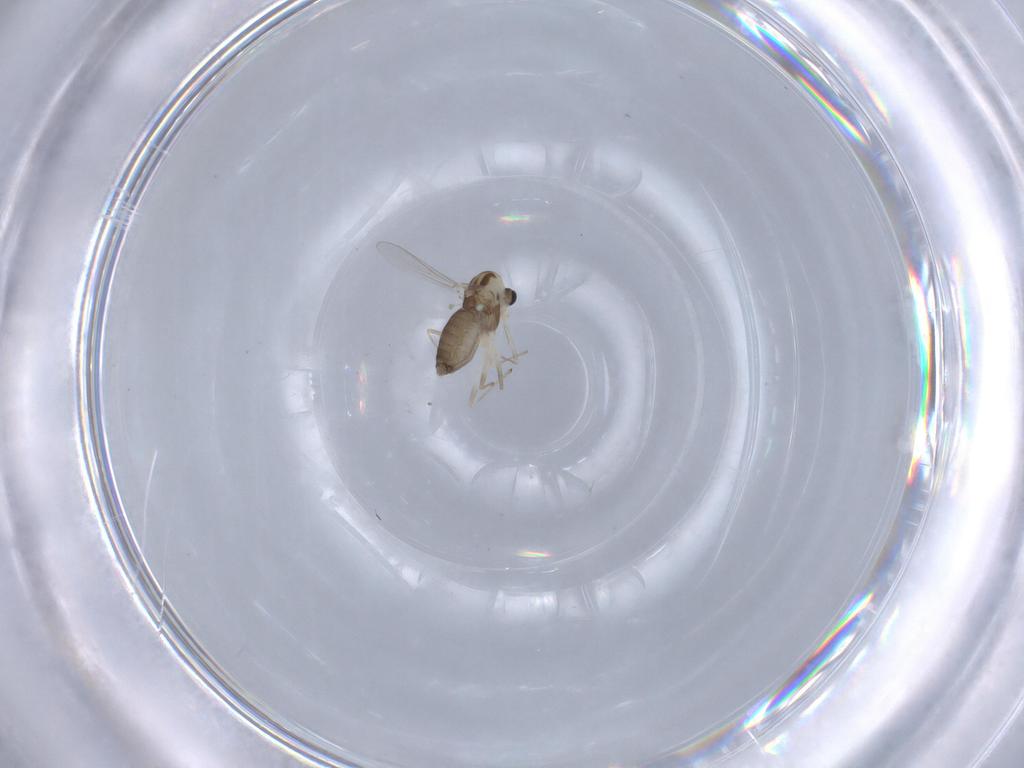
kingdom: Animalia
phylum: Arthropoda
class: Insecta
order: Diptera
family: Chironomidae
